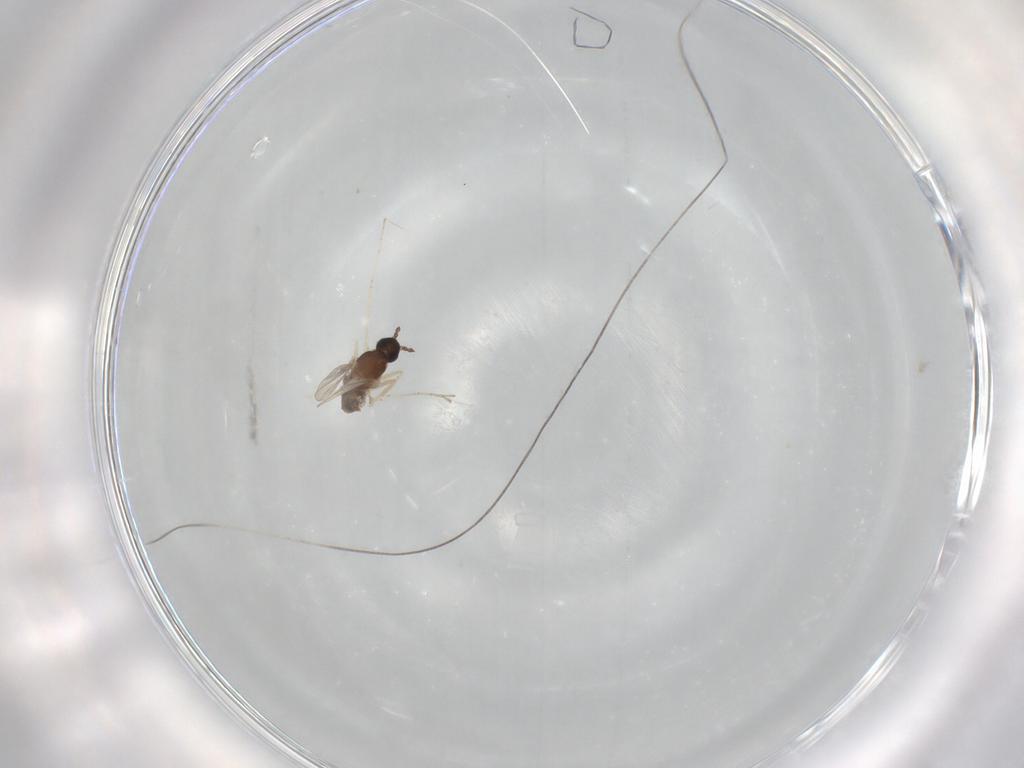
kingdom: Animalia
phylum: Arthropoda
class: Insecta
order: Diptera
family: Cecidomyiidae
